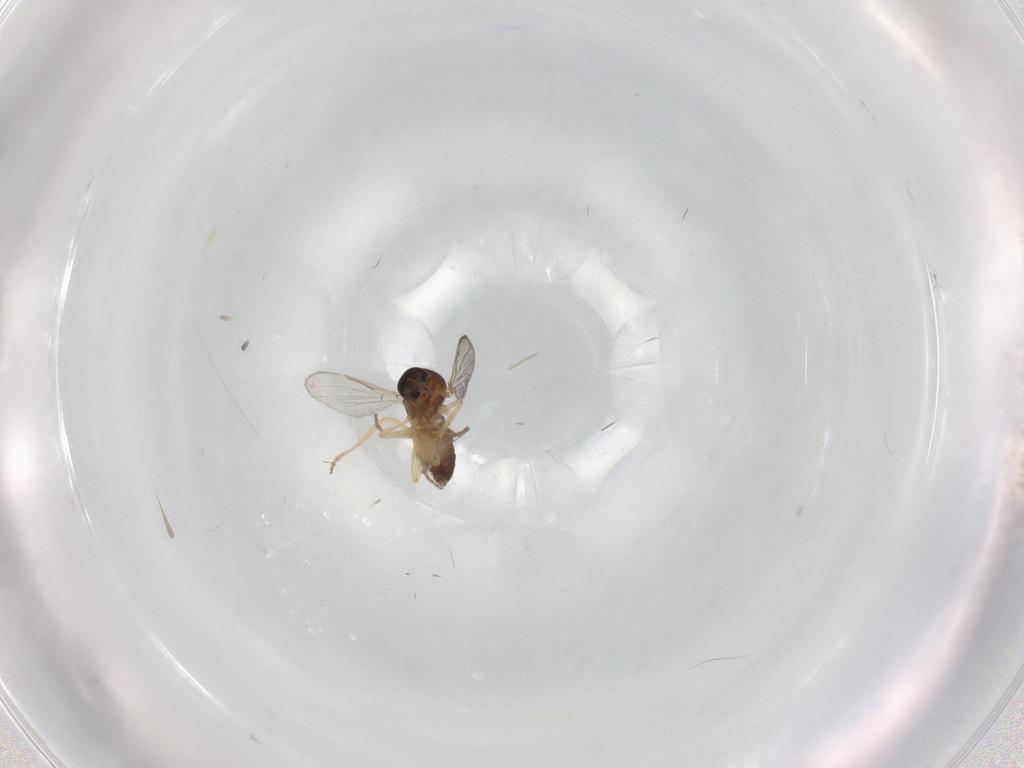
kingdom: Animalia
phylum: Arthropoda
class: Insecta
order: Diptera
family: Ceratopogonidae
